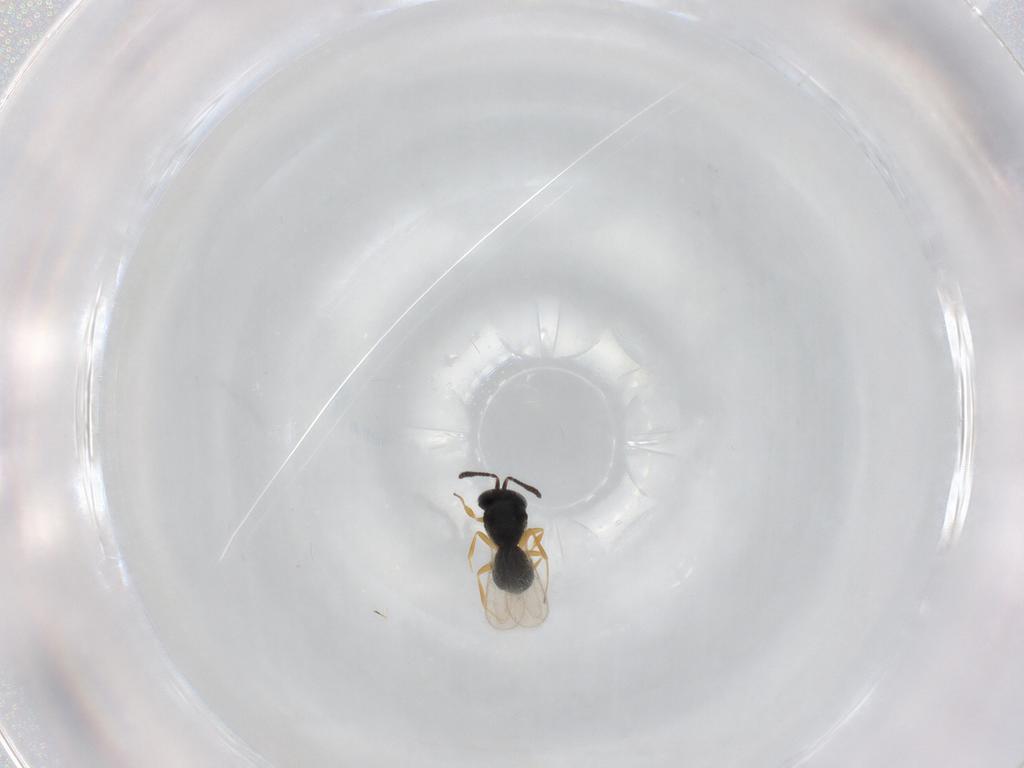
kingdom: Animalia
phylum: Arthropoda
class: Insecta
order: Hymenoptera
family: Scelionidae
